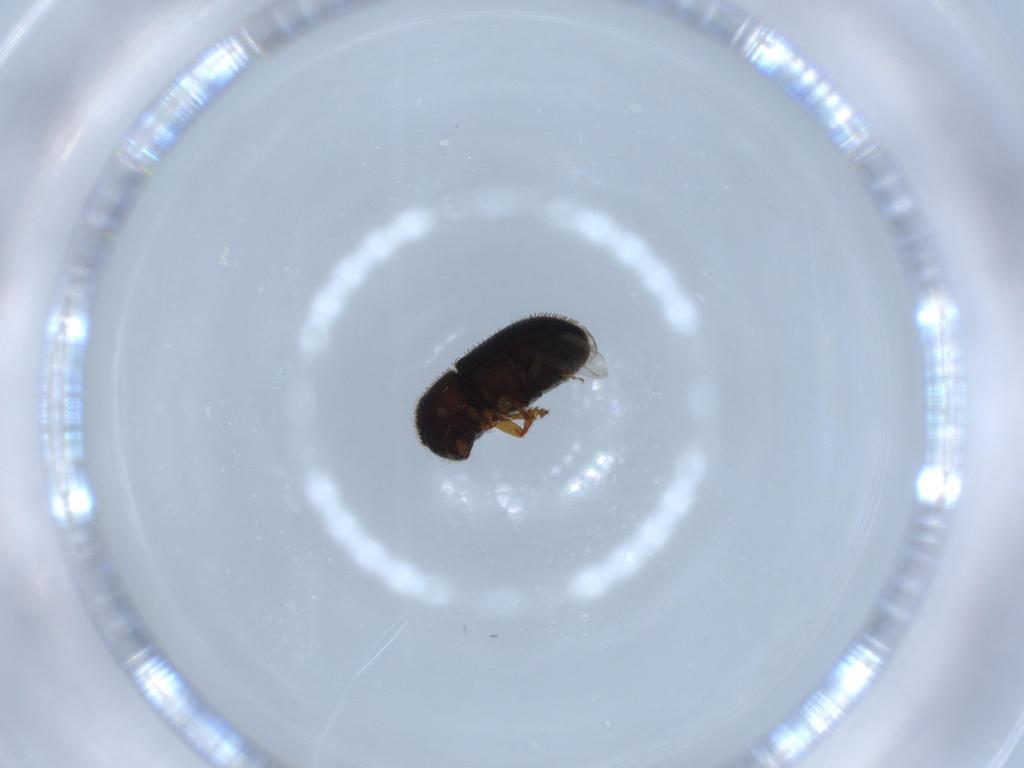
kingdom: Animalia
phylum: Arthropoda
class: Insecta
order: Coleoptera
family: Curculionidae
